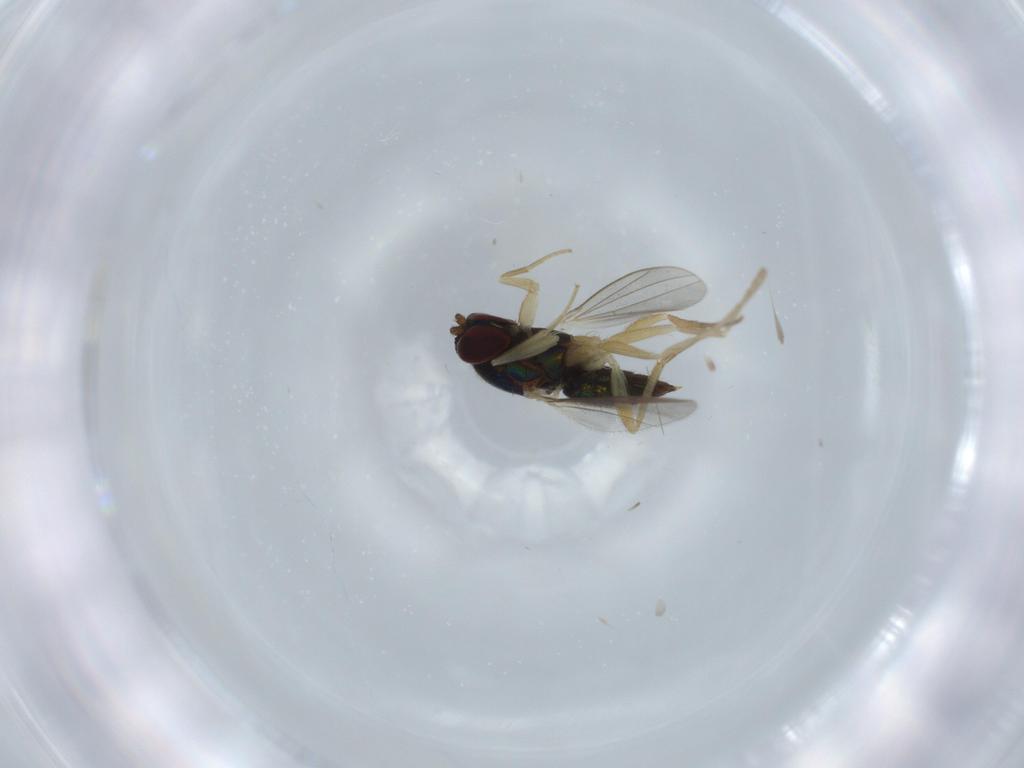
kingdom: Animalia
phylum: Arthropoda
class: Insecta
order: Diptera
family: Dolichopodidae
